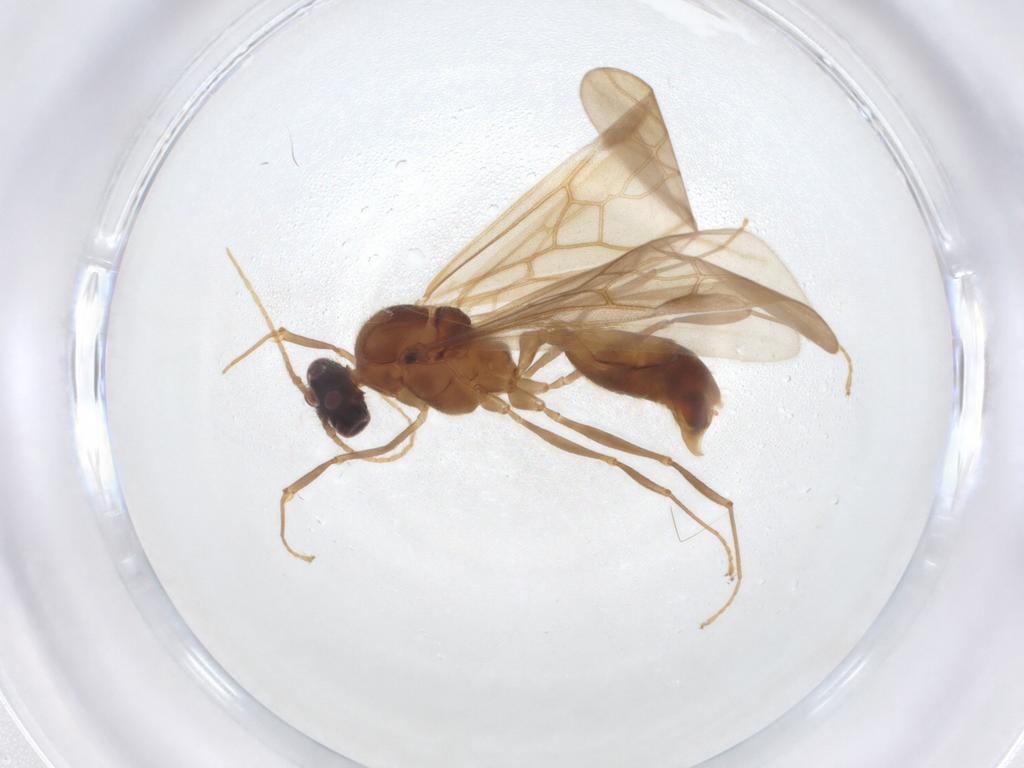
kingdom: Animalia
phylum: Arthropoda
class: Insecta
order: Hymenoptera
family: Formicidae
